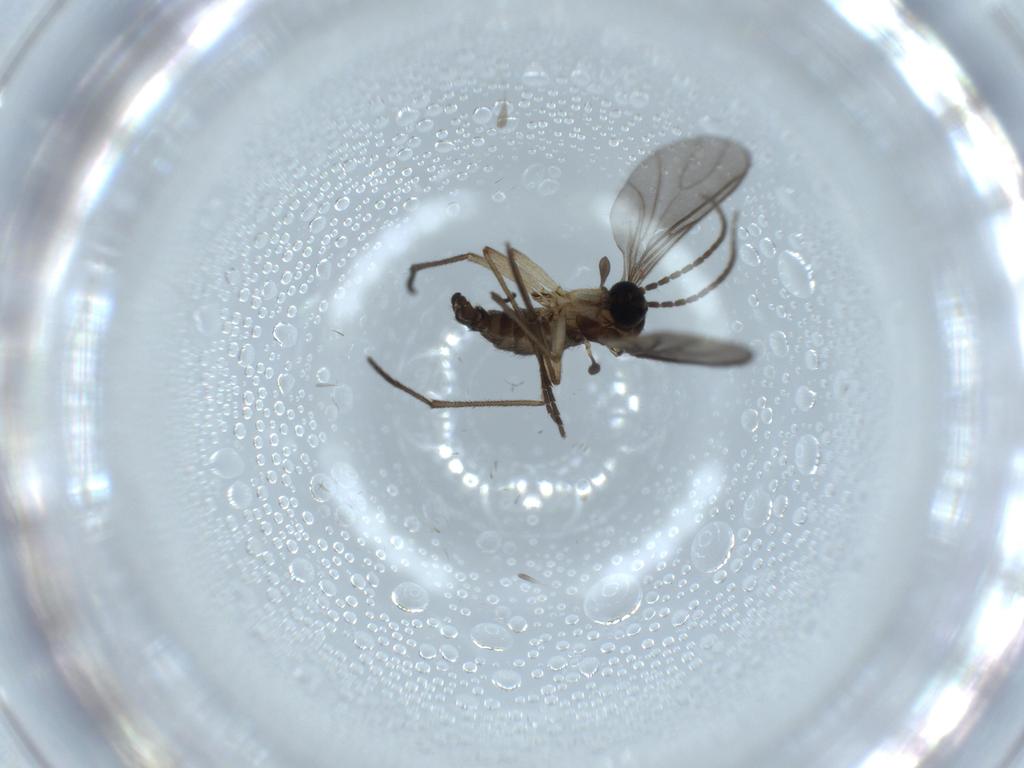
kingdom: Animalia
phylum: Arthropoda
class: Insecta
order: Diptera
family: Sciaridae
